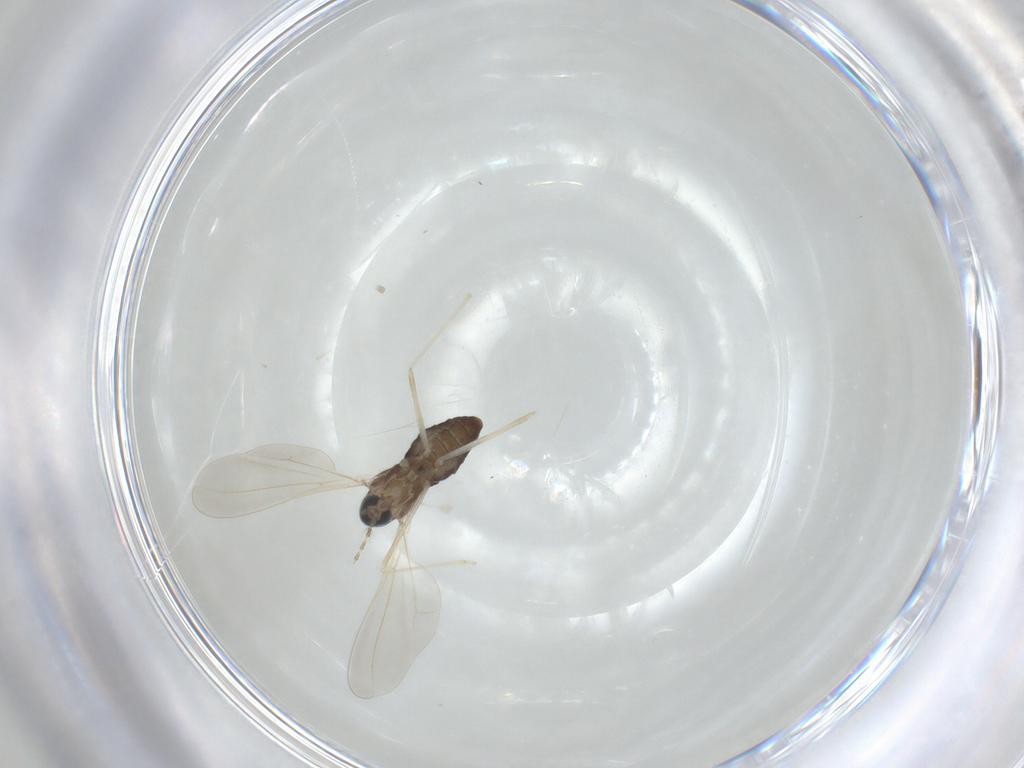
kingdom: Animalia
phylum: Arthropoda
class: Insecta
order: Diptera
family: Cecidomyiidae
